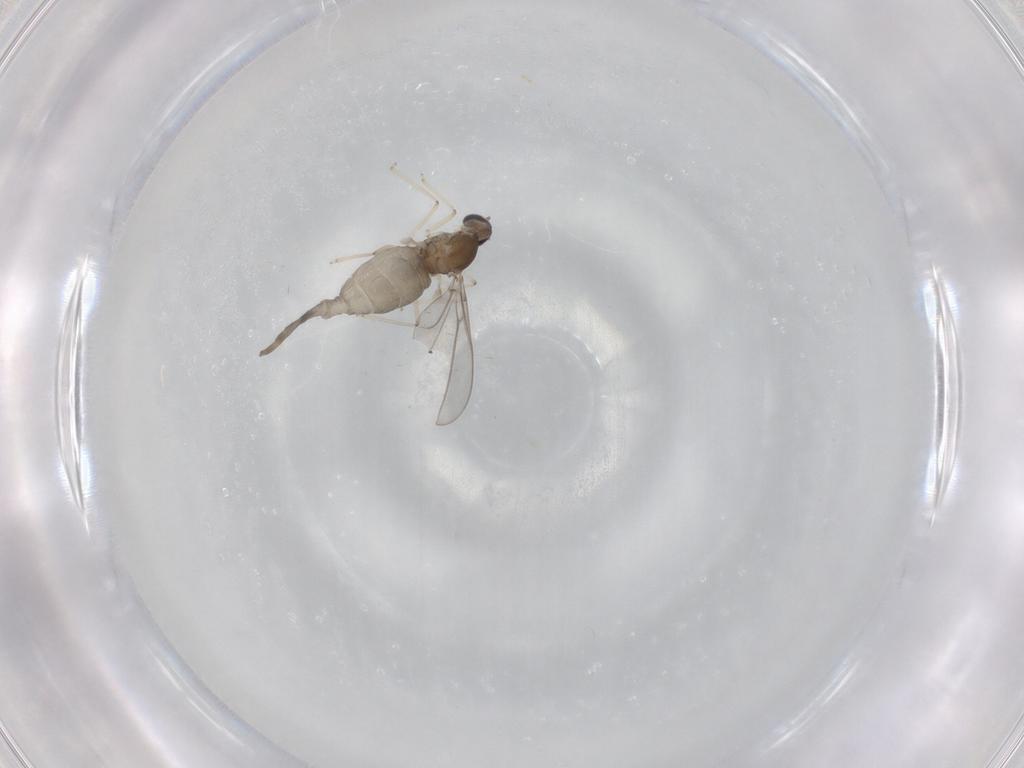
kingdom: Animalia
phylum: Arthropoda
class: Insecta
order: Diptera
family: Cecidomyiidae
